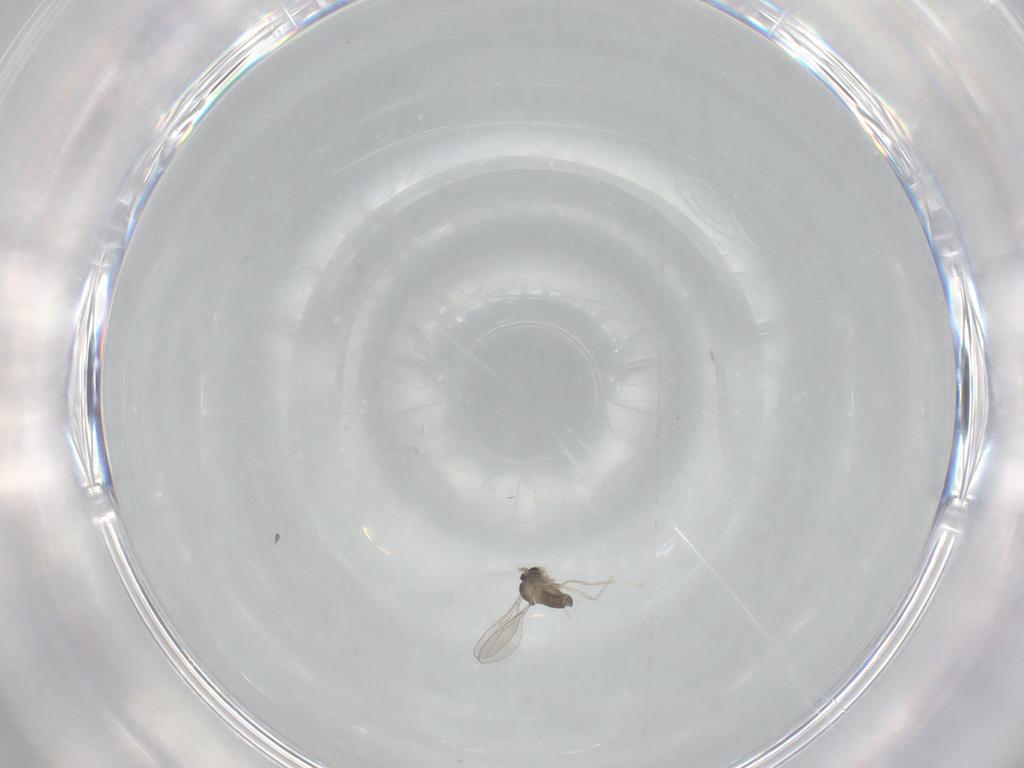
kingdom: Animalia
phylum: Arthropoda
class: Insecta
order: Diptera
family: Cecidomyiidae
